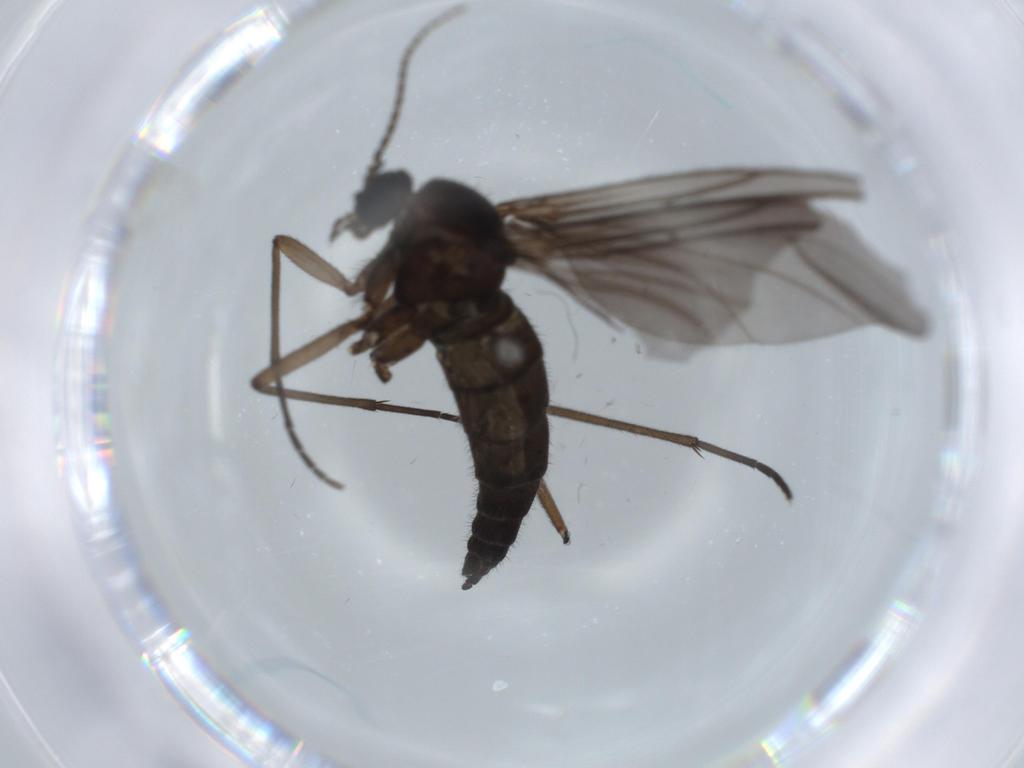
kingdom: Animalia
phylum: Arthropoda
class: Insecta
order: Diptera
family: Sciaridae
